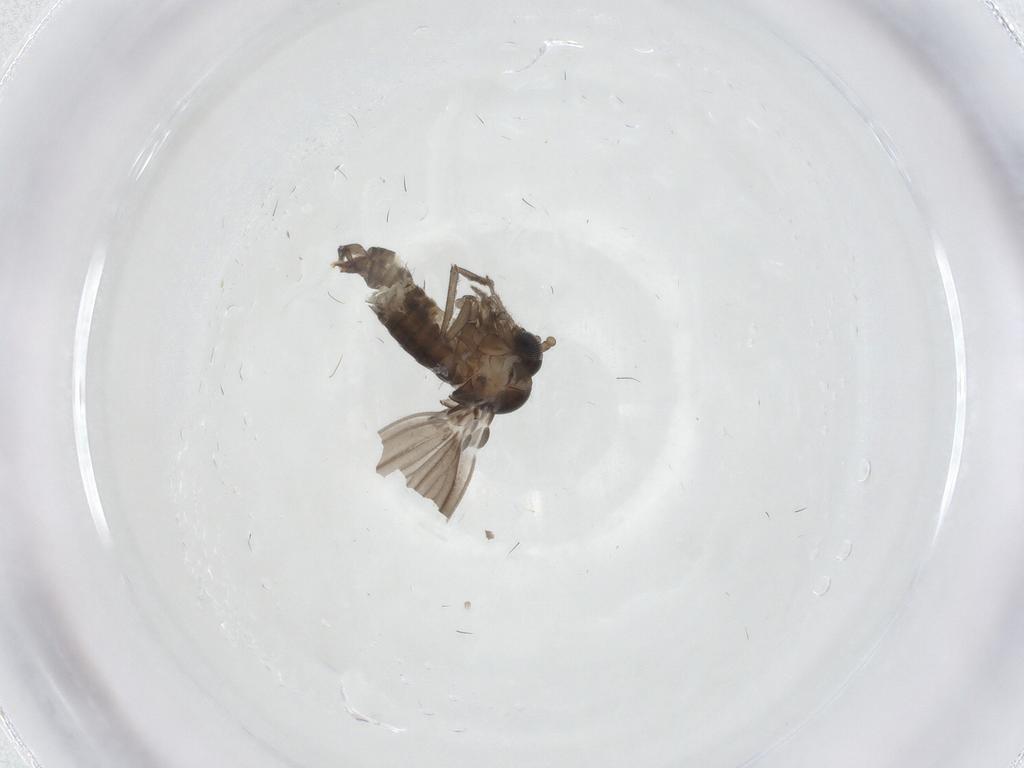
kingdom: Animalia
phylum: Arthropoda
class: Insecta
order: Diptera
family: Psychodidae
